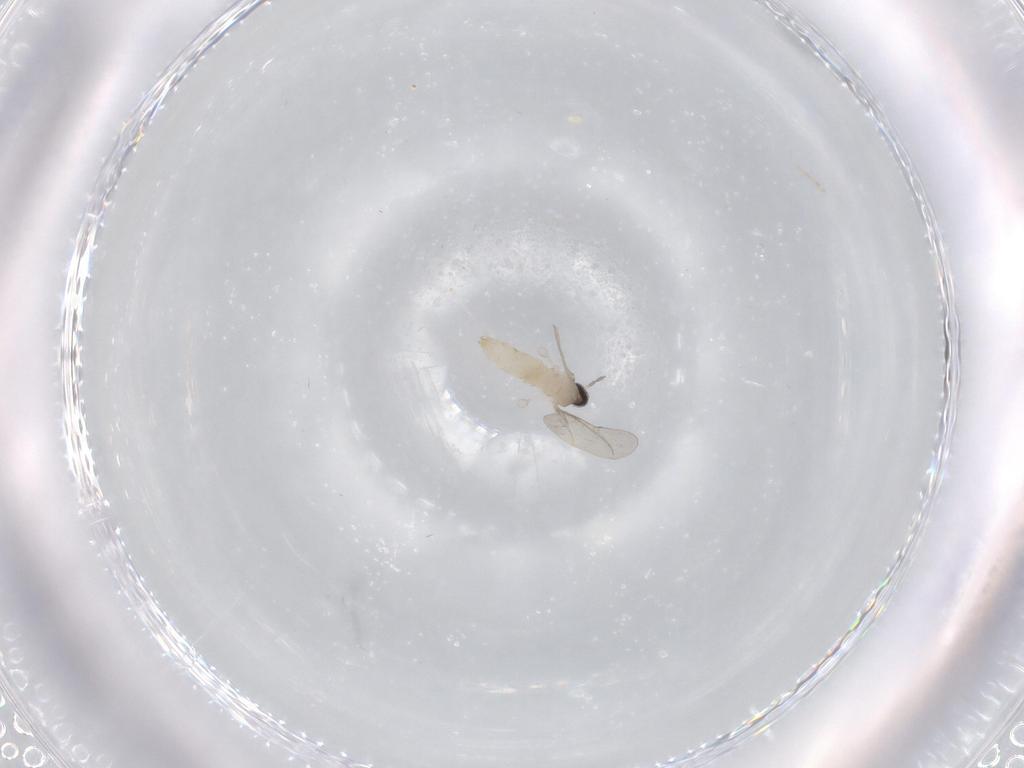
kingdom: Animalia
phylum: Arthropoda
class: Insecta
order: Diptera
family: Cecidomyiidae
